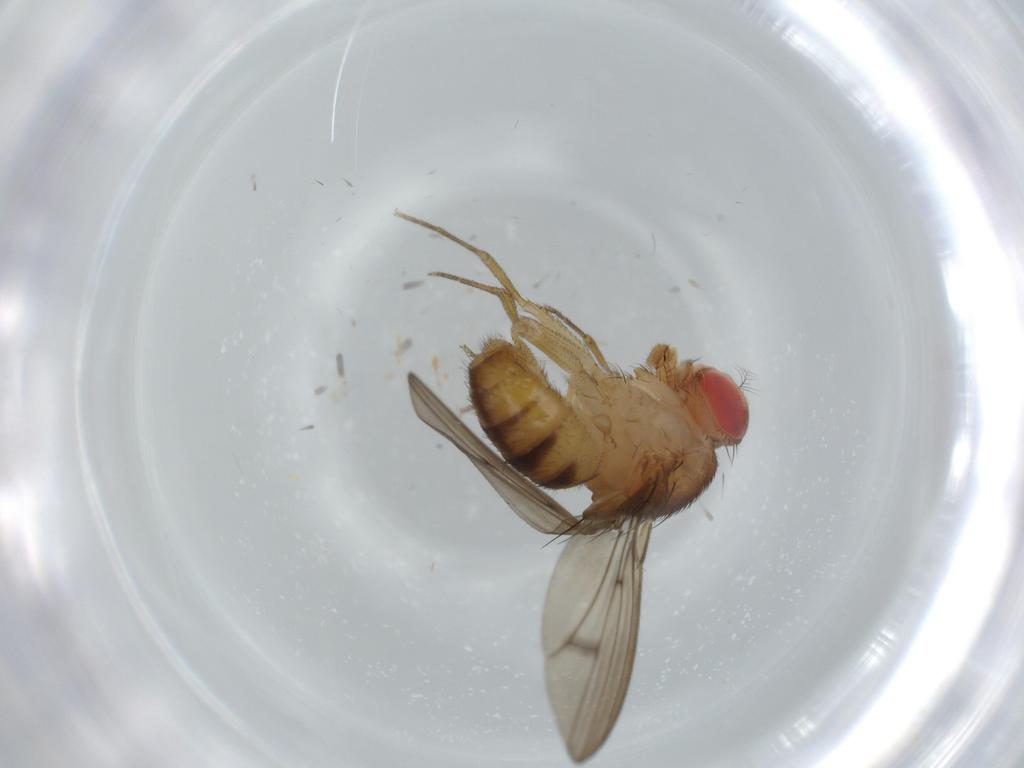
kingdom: Animalia
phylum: Arthropoda
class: Insecta
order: Diptera
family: Drosophilidae
